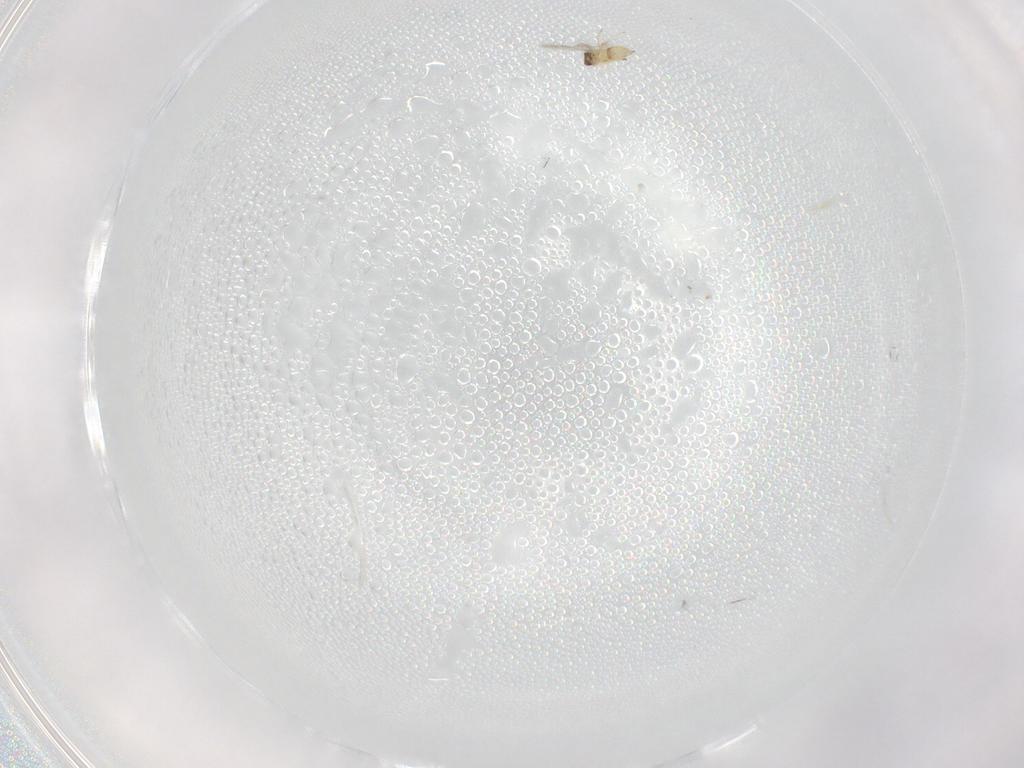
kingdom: Animalia
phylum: Arthropoda
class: Insecta
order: Hymenoptera
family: Mymaridae
